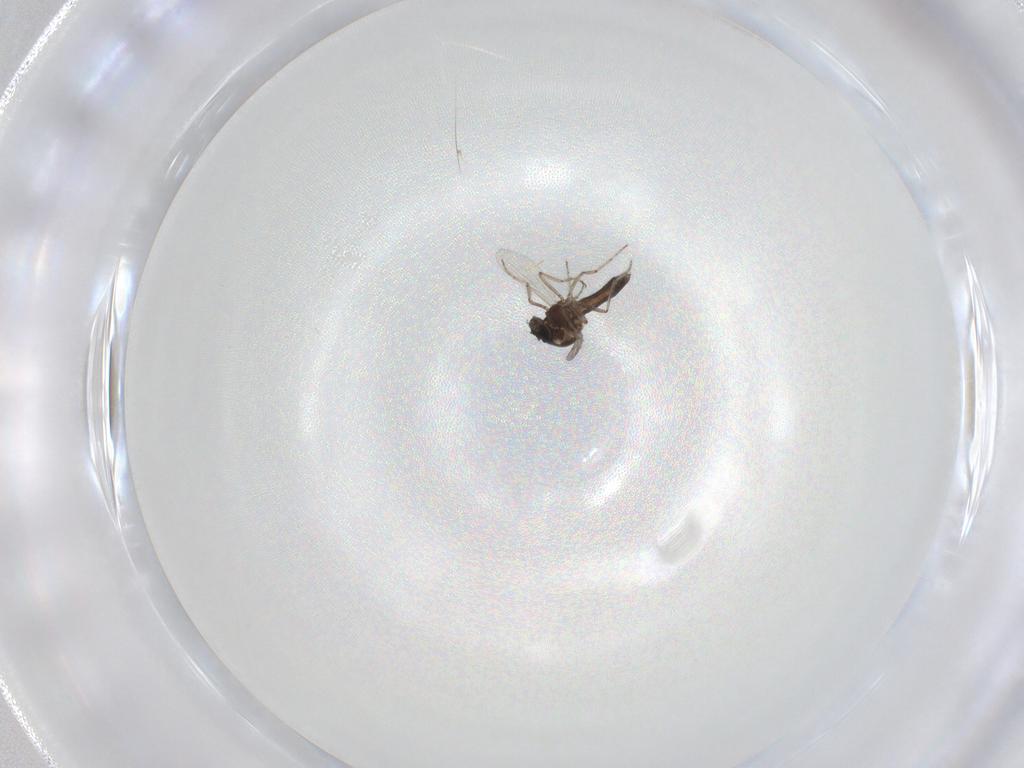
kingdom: Animalia
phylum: Arthropoda
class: Insecta
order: Diptera
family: Ceratopogonidae
